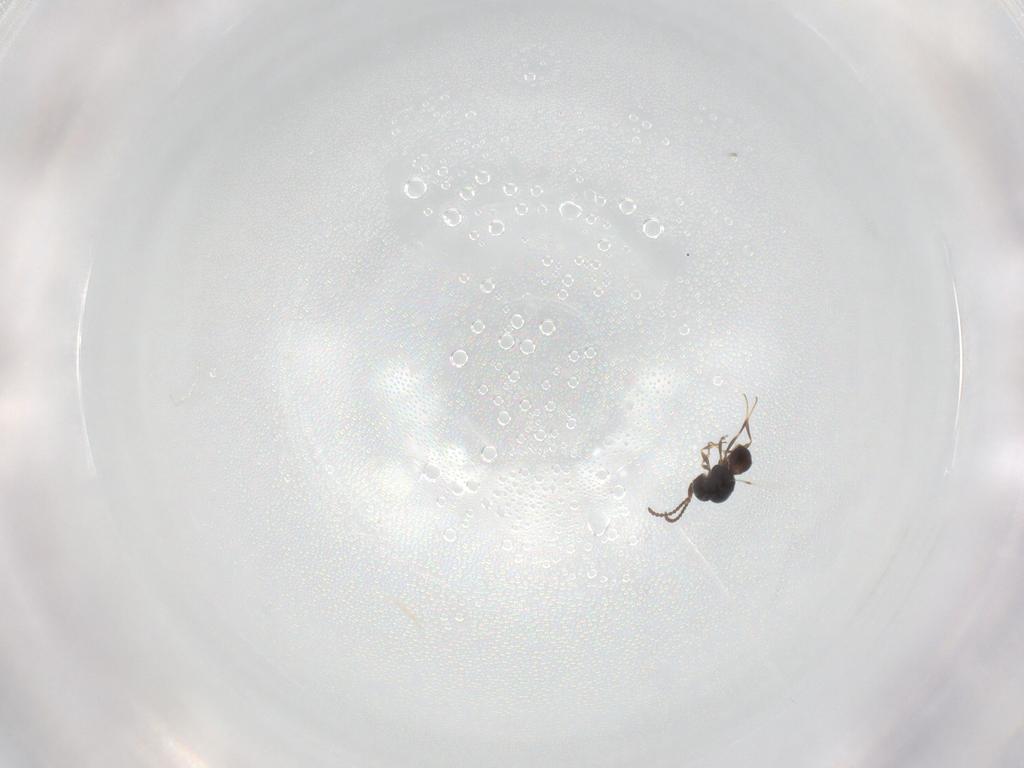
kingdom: Animalia
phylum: Arthropoda
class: Insecta
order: Hymenoptera
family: Scelionidae
